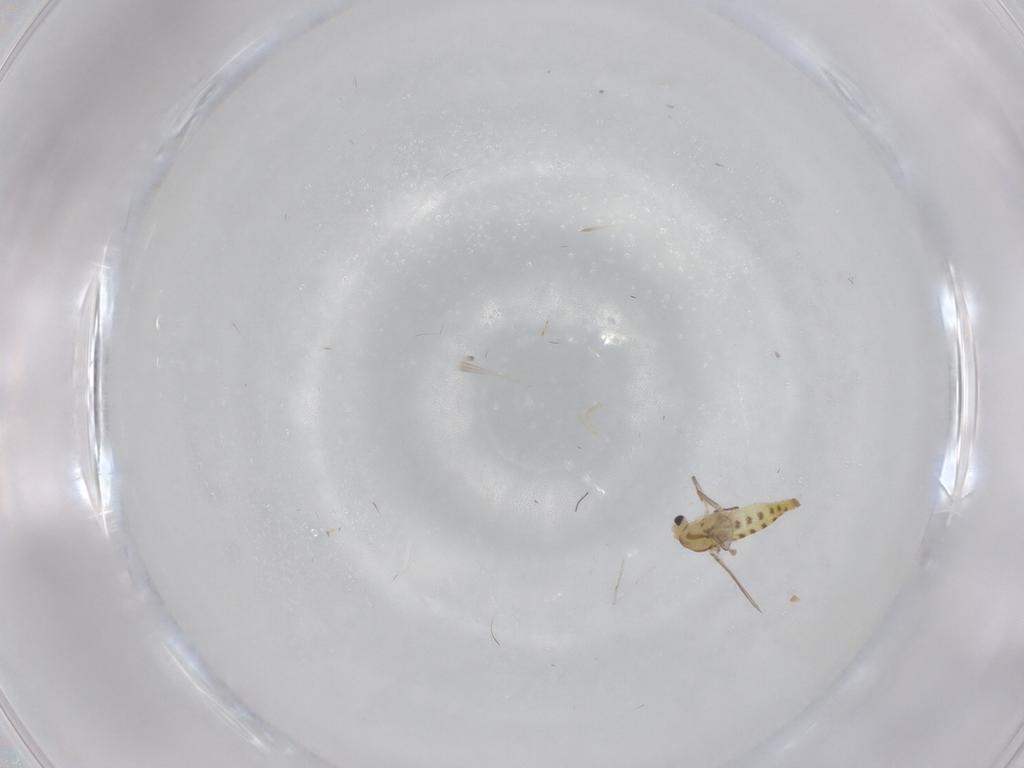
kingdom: Animalia
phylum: Arthropoda
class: Insecta
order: Diptera
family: Chironomidae
